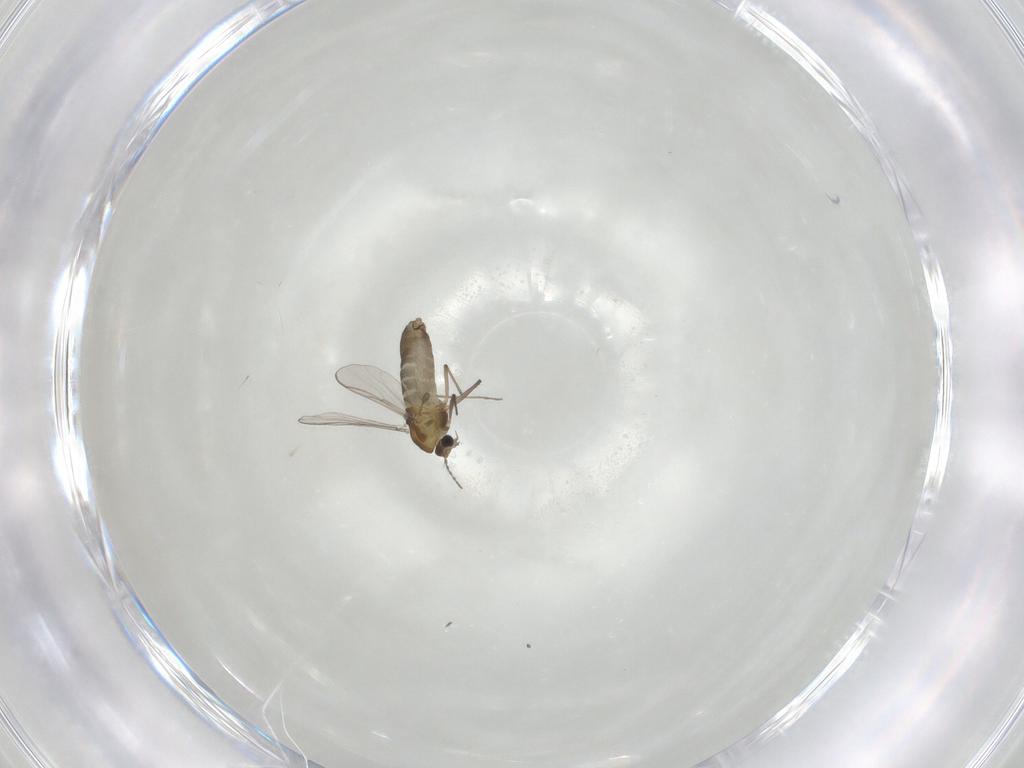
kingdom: Animalia
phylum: Arthropoda
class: Insecta
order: Diptera
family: Chironomidae
